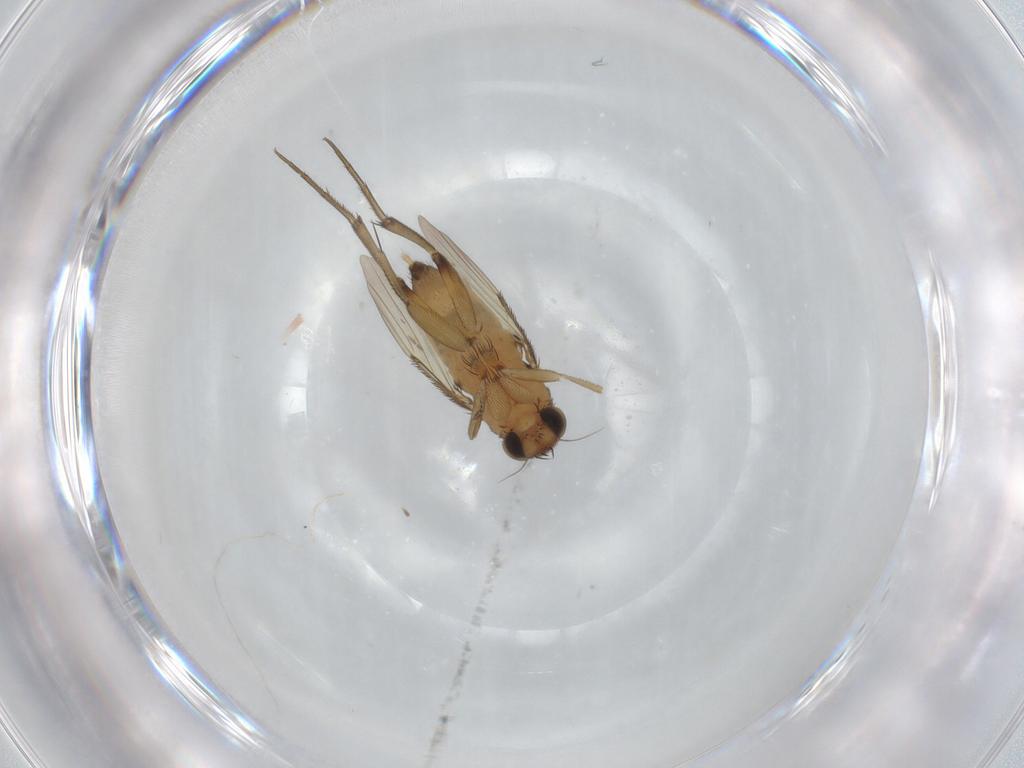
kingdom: Animalia
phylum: Arthropoda
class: Insecta
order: Diptera
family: Phoridae
